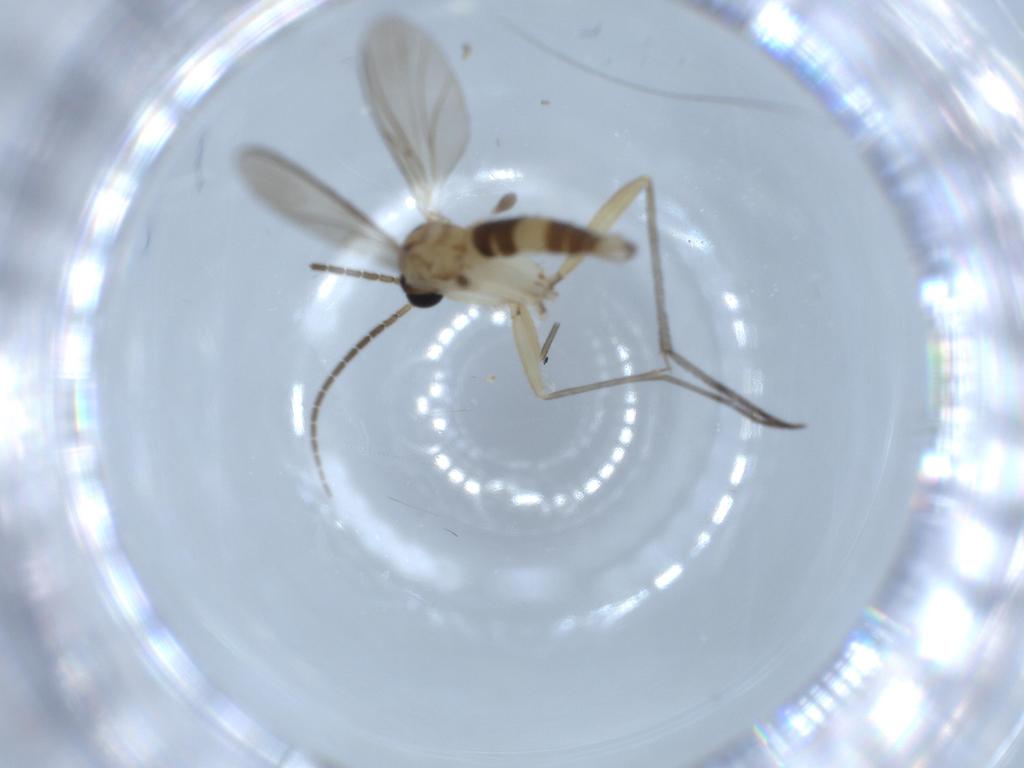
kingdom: Animalia
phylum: Arthropoda
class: Insecta
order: Diptera
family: Sciaridae
